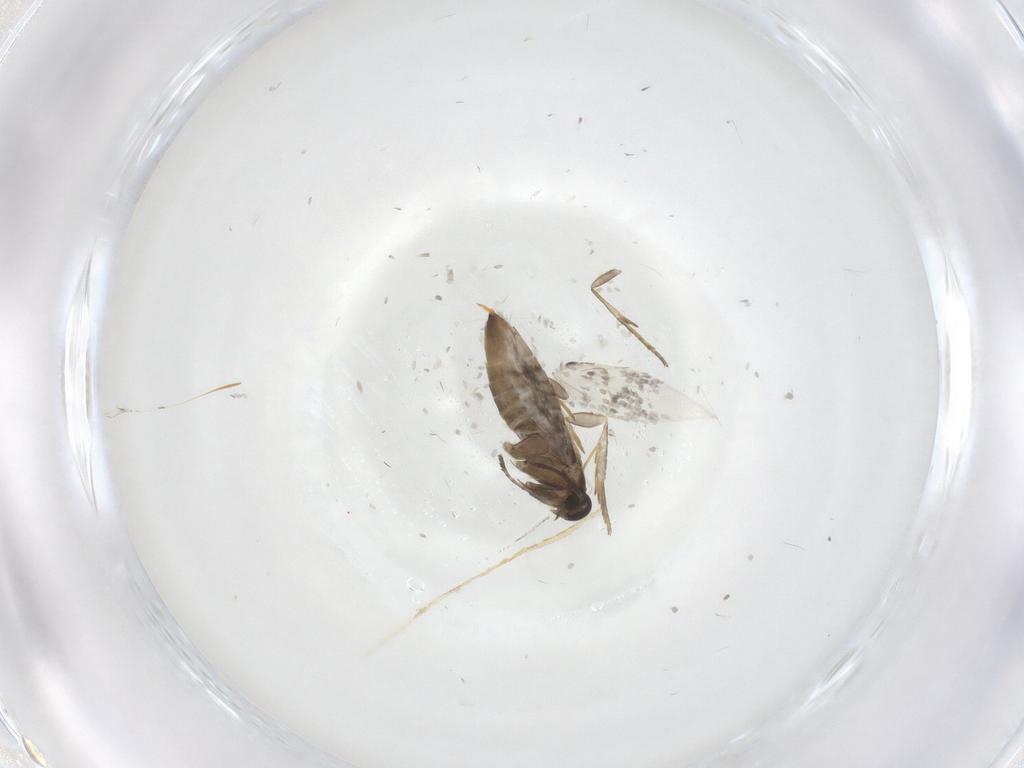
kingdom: Animalia
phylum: Arthropoda
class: Insecta
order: Lepidoptera
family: Heliozelidae
